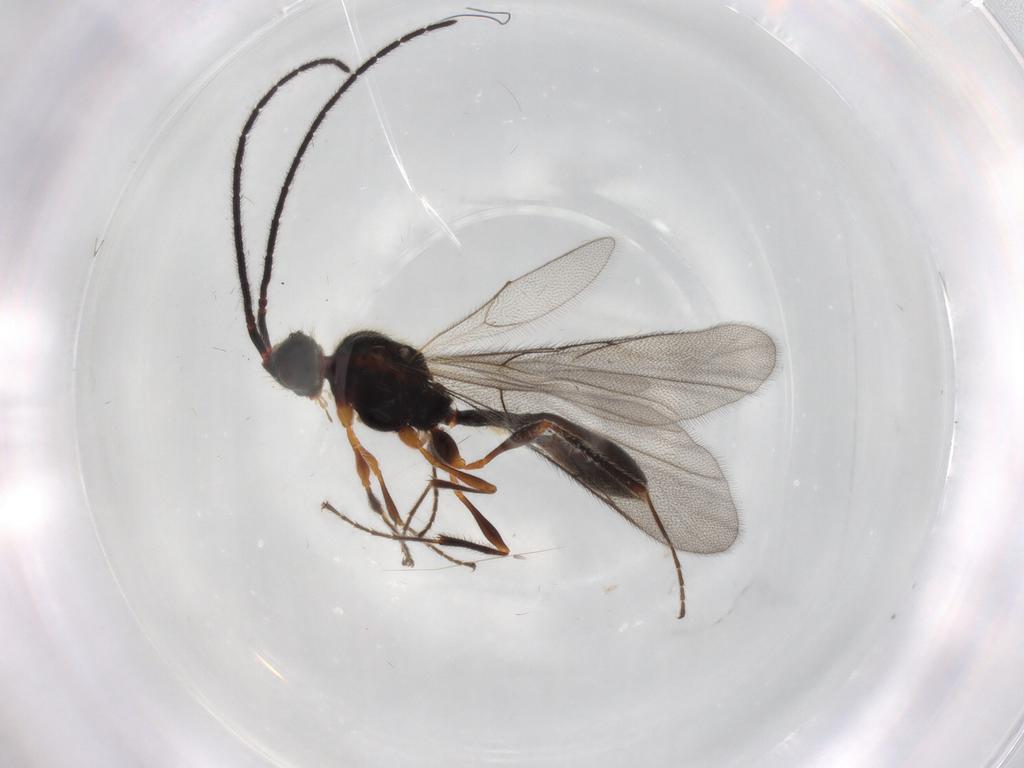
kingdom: Animalia
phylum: Arthropoda
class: Insecta
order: Hymenoptera
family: Diapriidae
